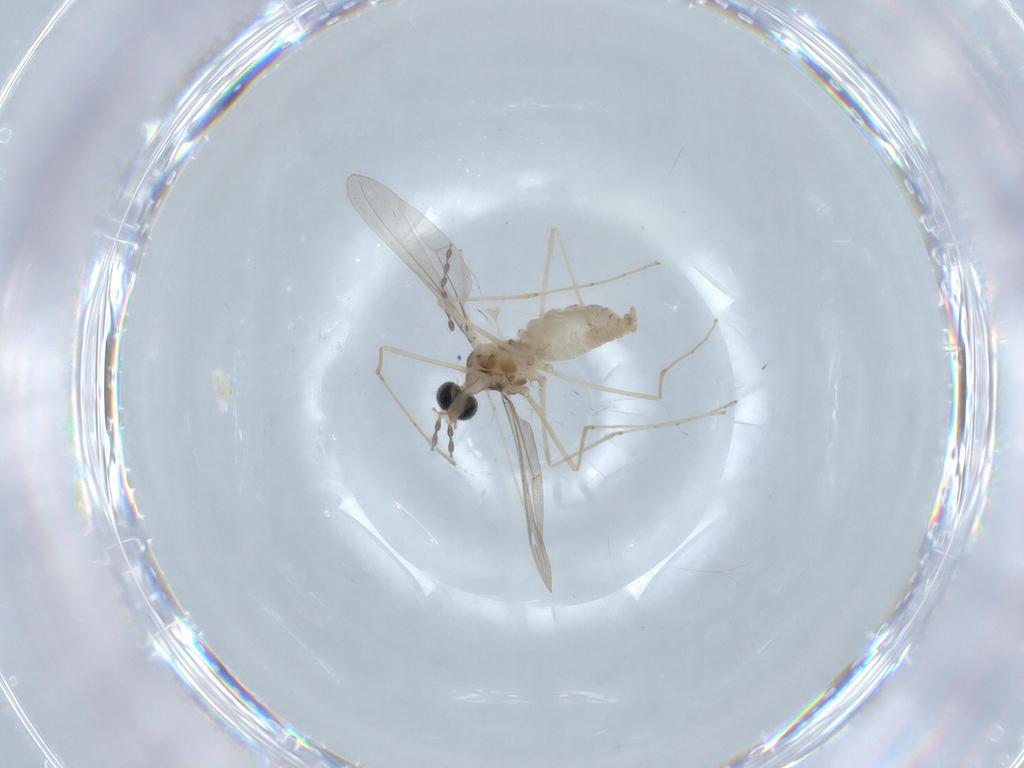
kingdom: Animalia
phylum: Arthropoda
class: Insecta
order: Diptera
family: Cecidomyiidae
